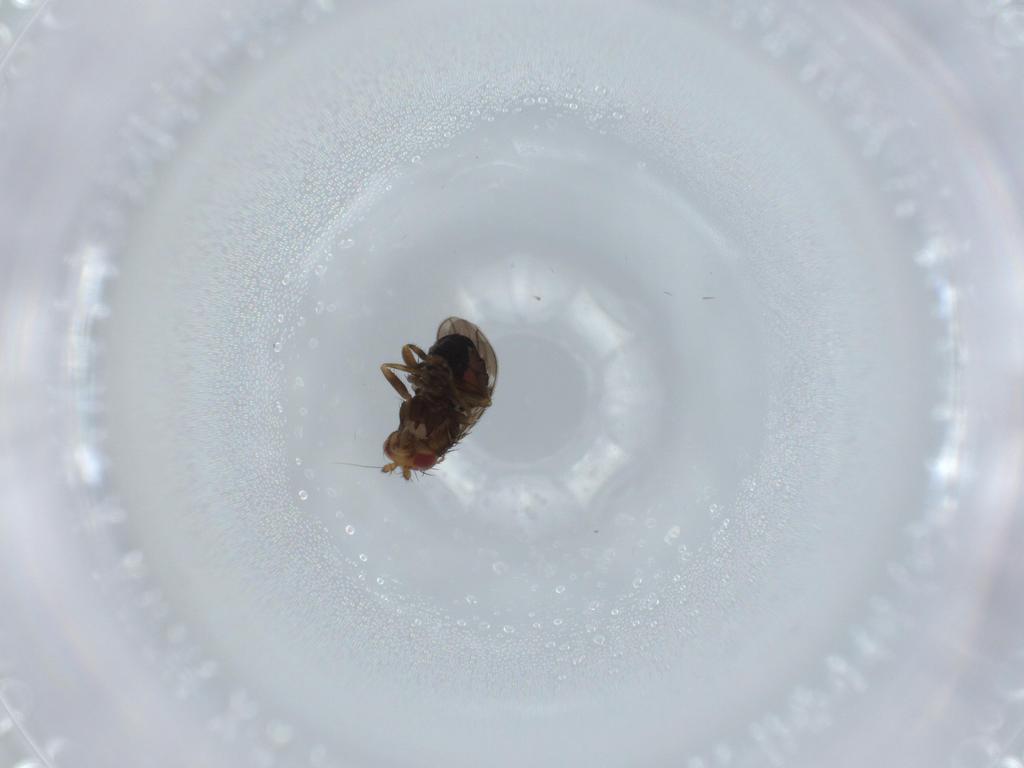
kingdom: Animalia
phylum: Arthropoda
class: Insecta
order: Diptera
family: Sphaeroceridae
